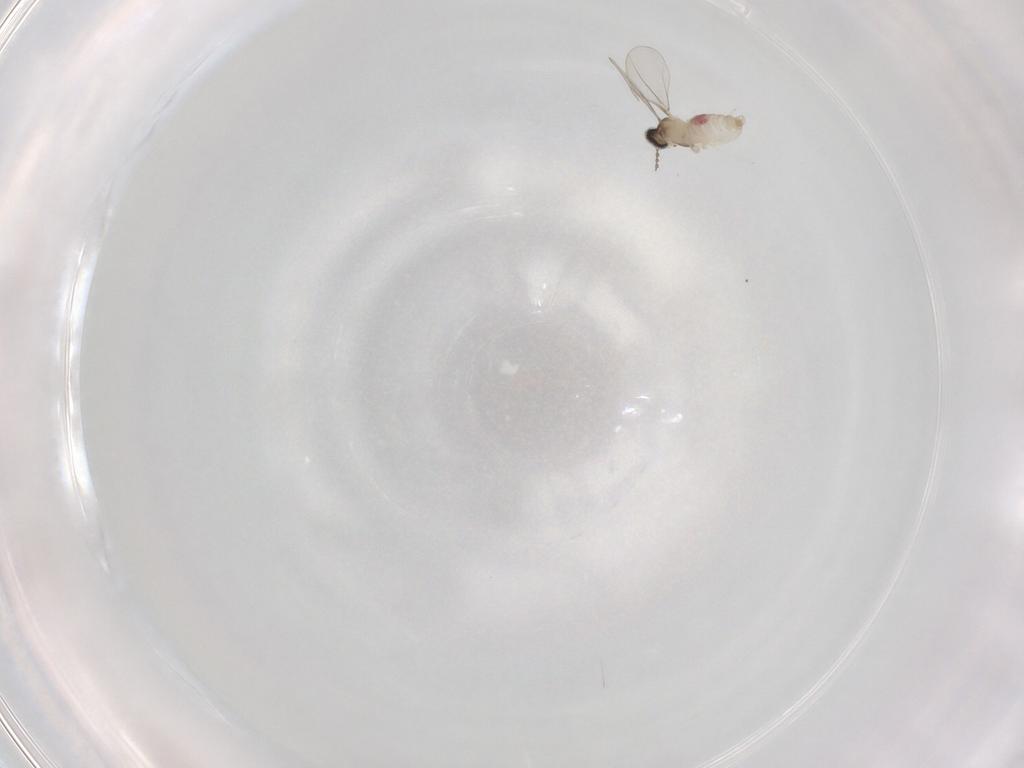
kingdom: Animalia
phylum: Arthropoda
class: Insecta
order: Diptera
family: Cecidomyiidae
